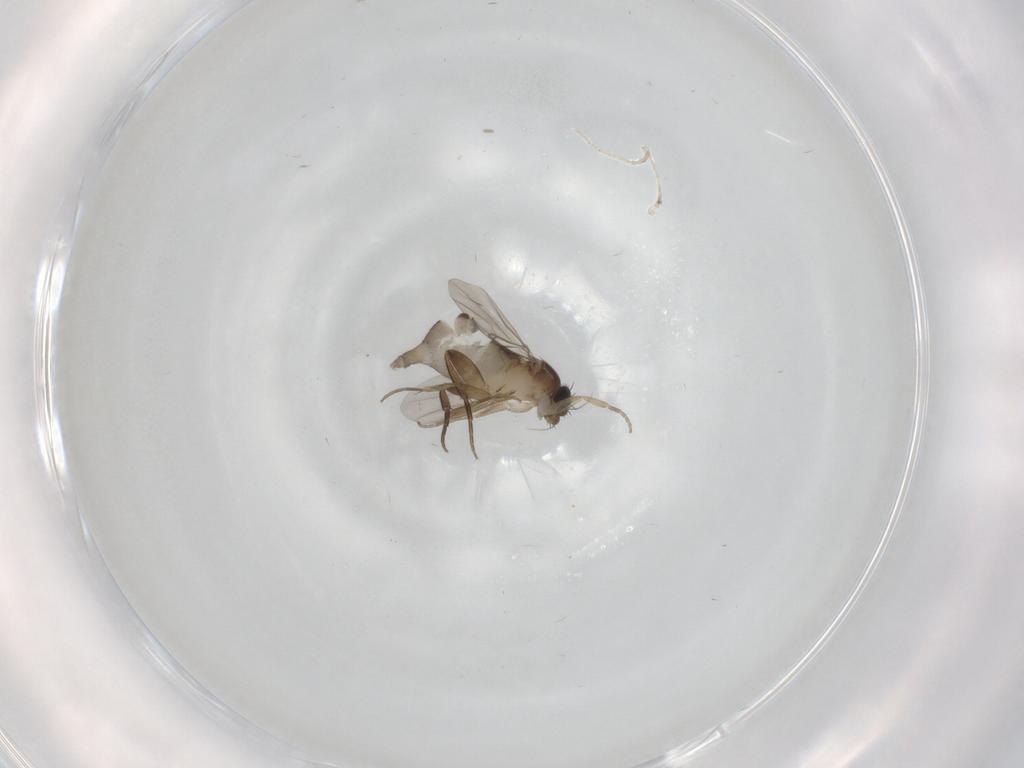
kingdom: Animalia
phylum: Arthropoda
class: Insecta
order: Diptera
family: Phoridae
